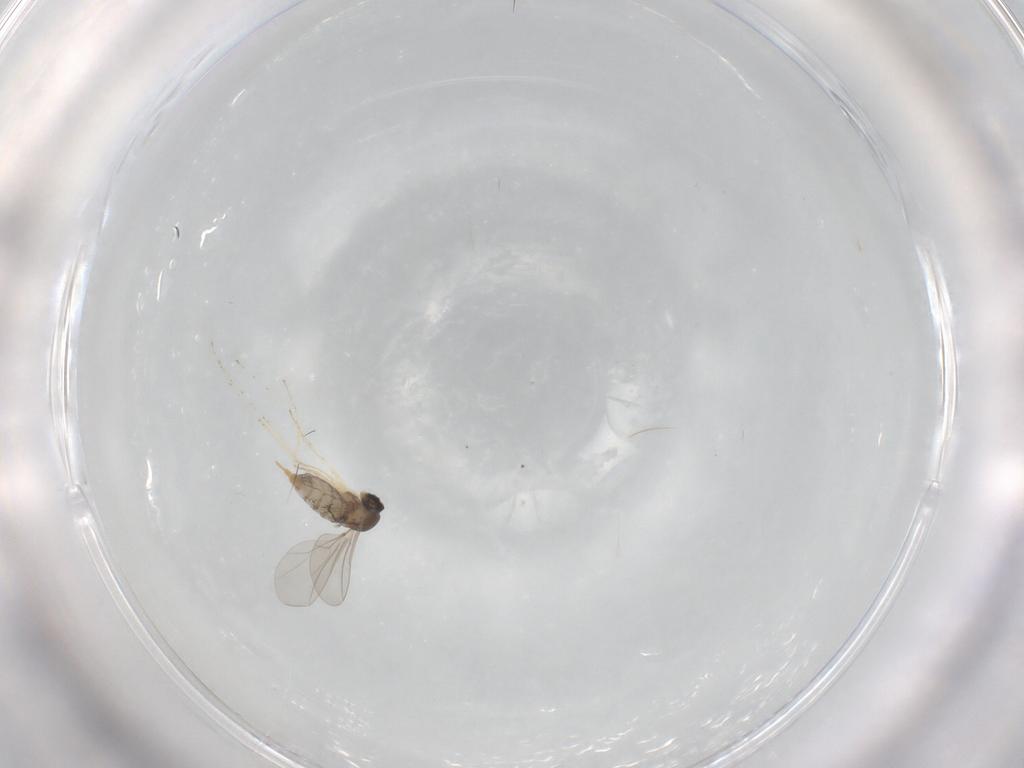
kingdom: Animalia
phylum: Arthropoda
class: Insecta
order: Diptera
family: Cecidomyiidae
